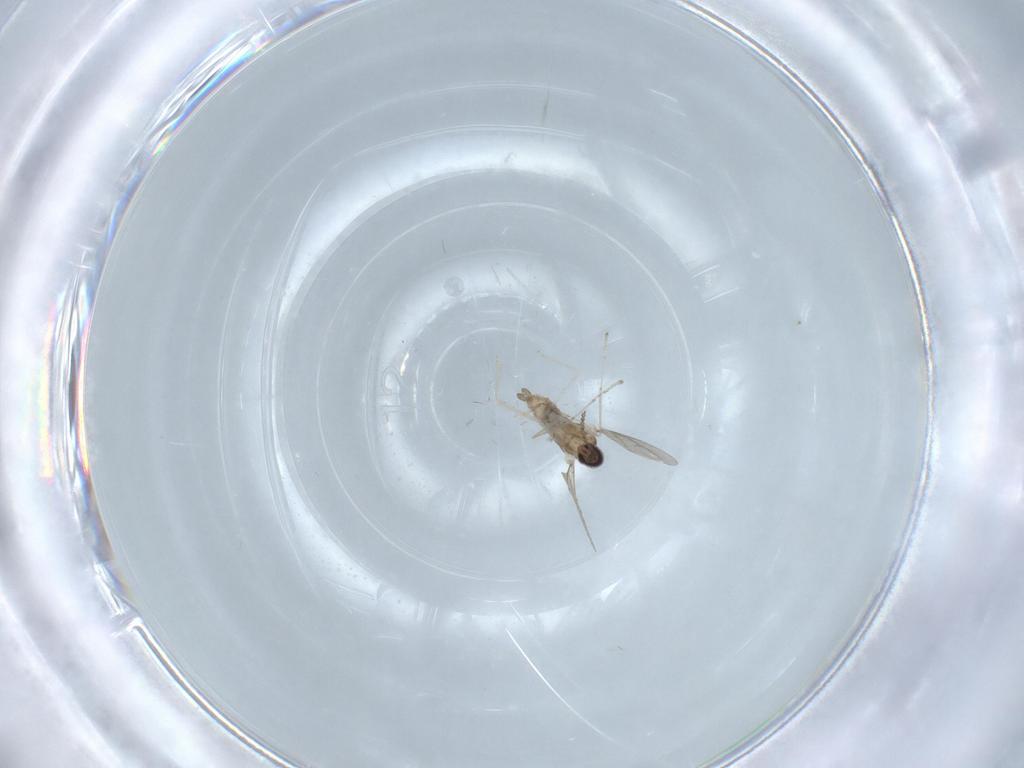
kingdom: Animalia
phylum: Arthropoda
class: Insecta
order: Diptera
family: Cecidomyiidae
